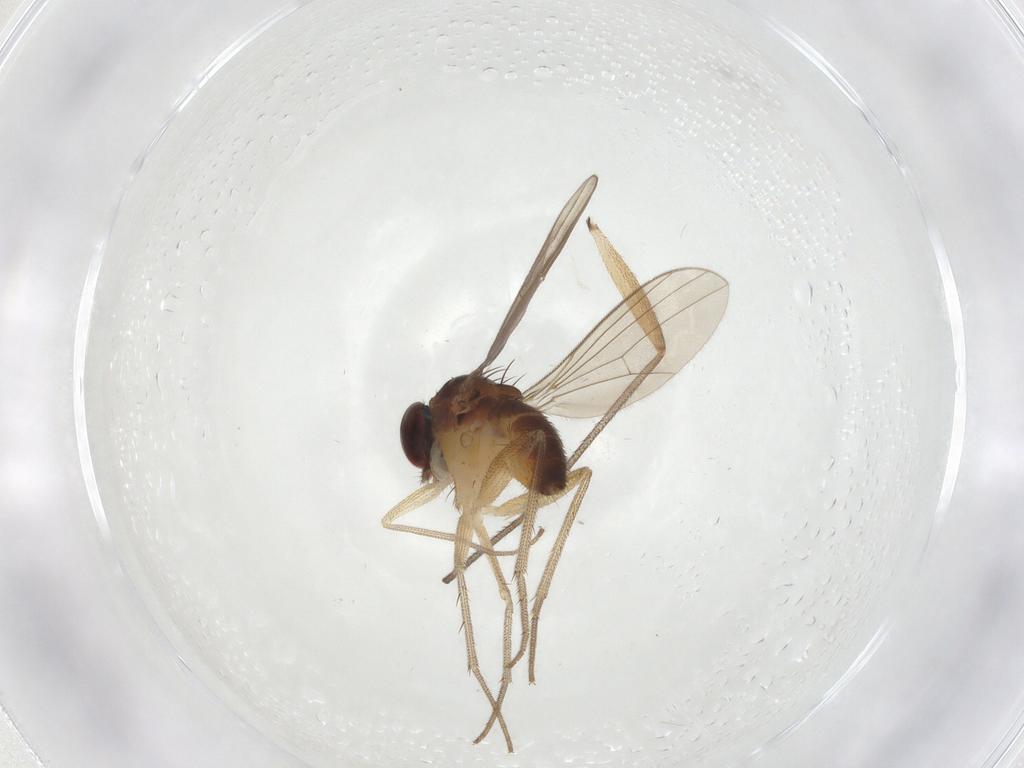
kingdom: Animalia
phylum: Arthropoda
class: Insecta
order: Diptera
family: Dolichopodidae
